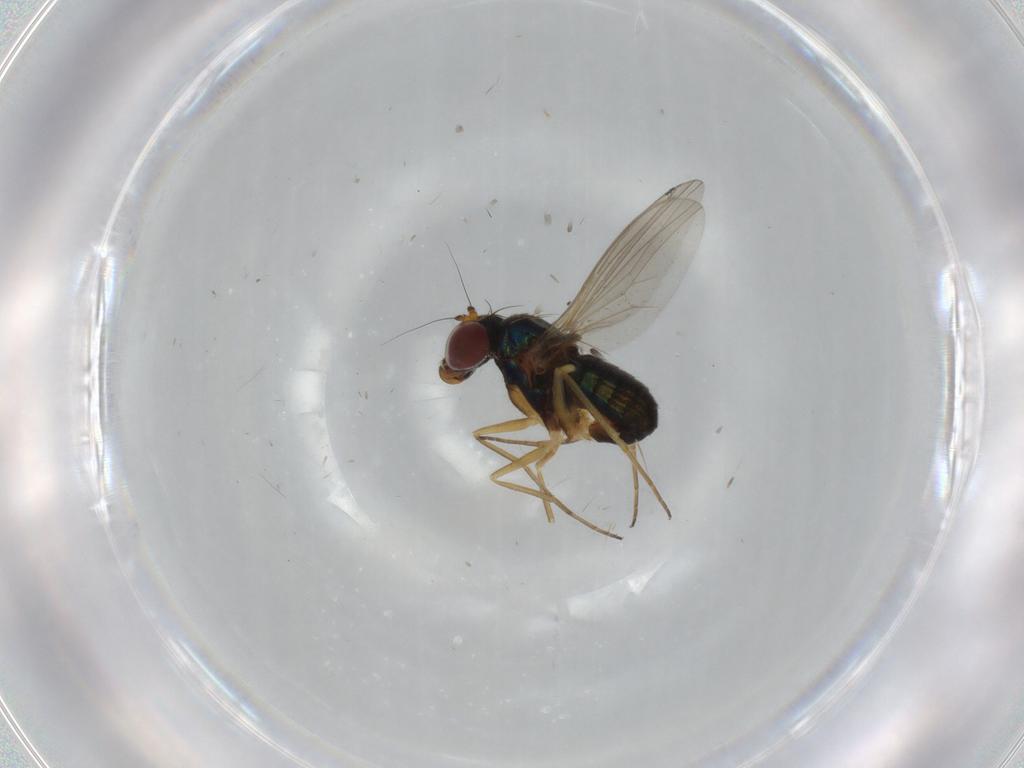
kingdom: Animalia
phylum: Arthropoda
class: Insecta
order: Diptera
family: Dolichopodidae
